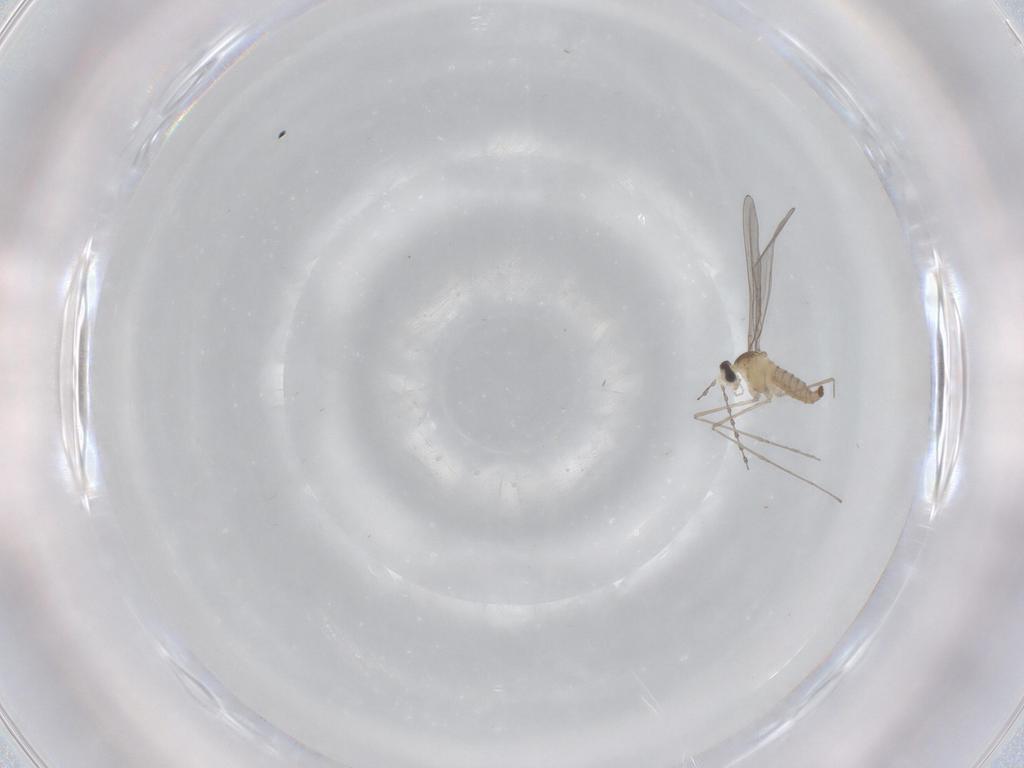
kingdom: Animalia
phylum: Arthropoda
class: Insecta
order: Diptera
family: Cecidomyiidae
